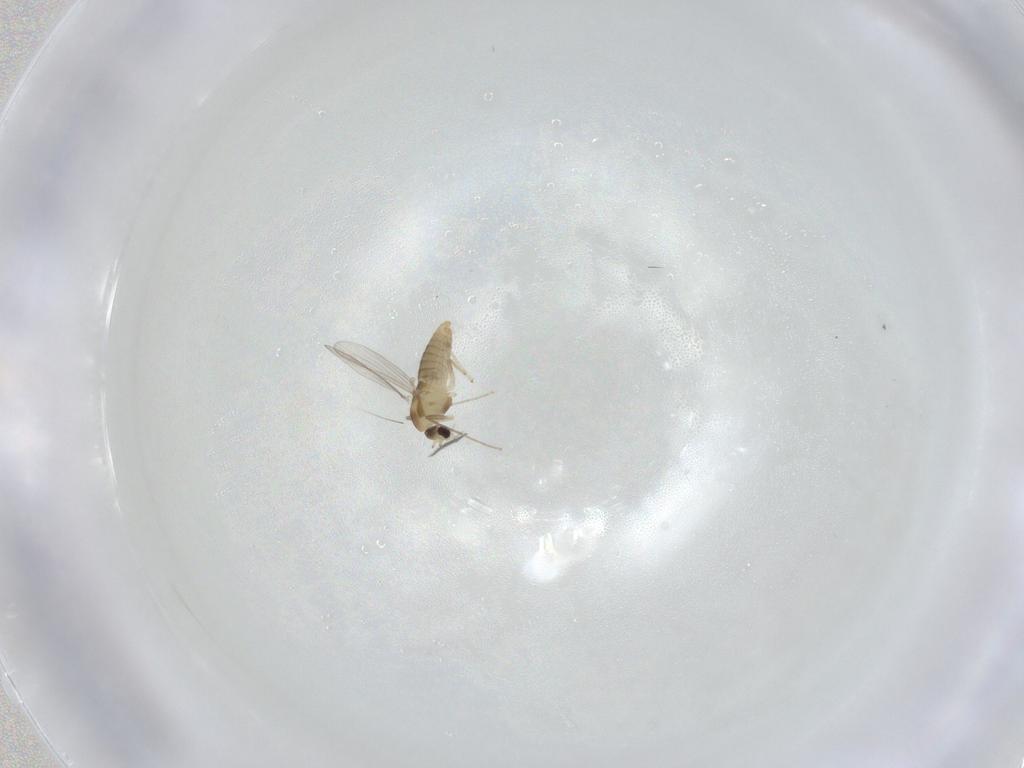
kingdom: Animalia
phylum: Arthropoda
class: Insecta
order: Diptera
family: Chironomidae
